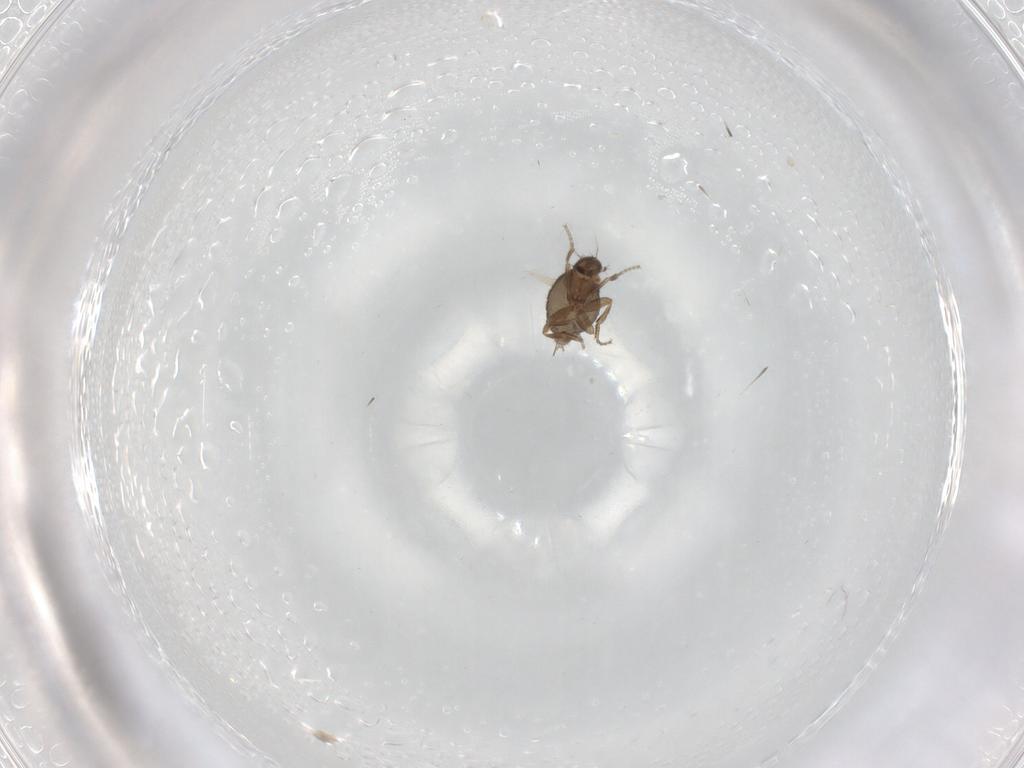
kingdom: Animalia
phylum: Arthropoda
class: Insecta
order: Diptera
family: Phoridae
